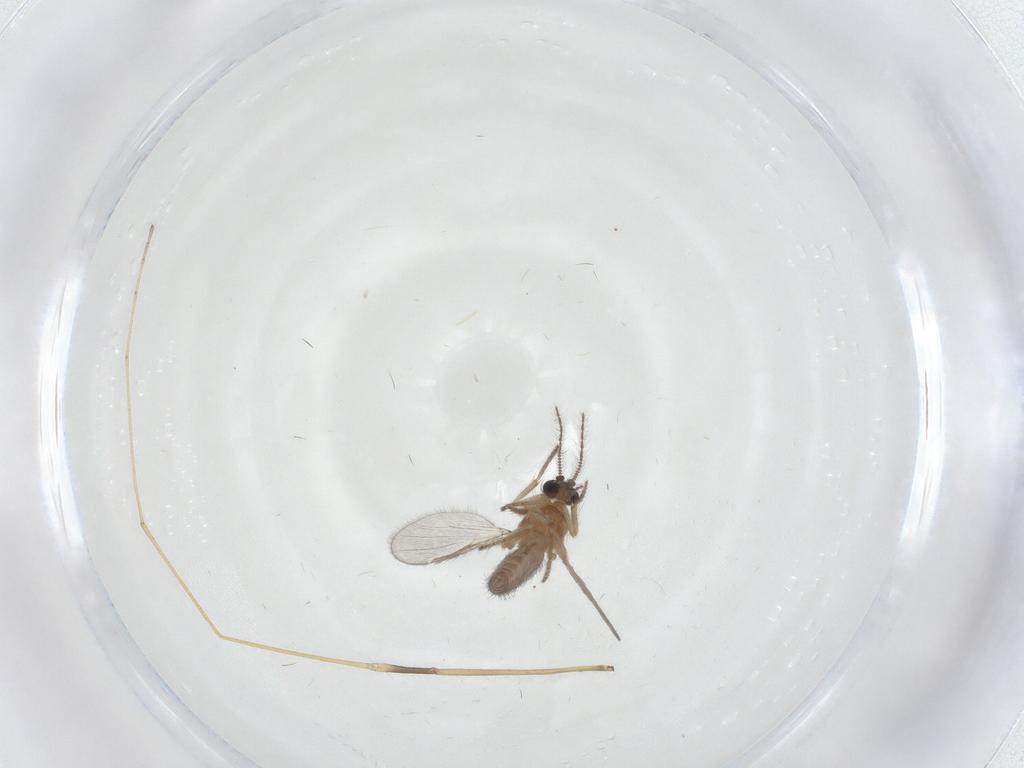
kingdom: Animalia
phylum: Arthropoda
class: Insecta
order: Diptera
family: Ceratopogonidae
